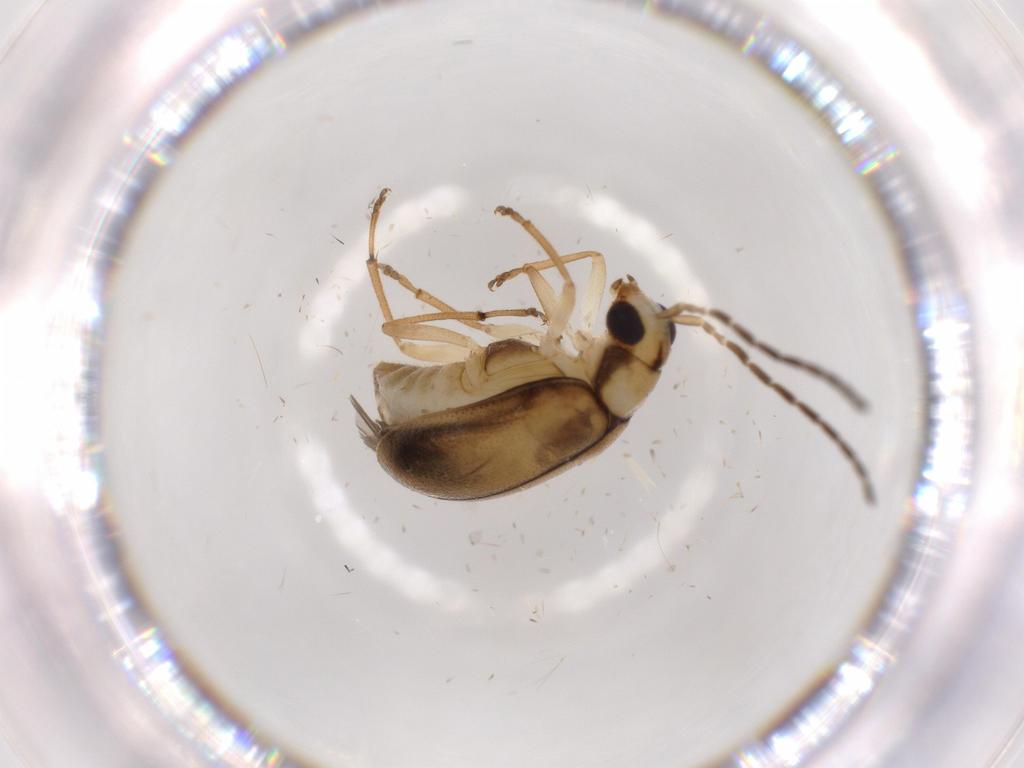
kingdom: Animalia
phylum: Arthropoda
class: Insecta
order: Coleoptera
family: Chrysomelidae
